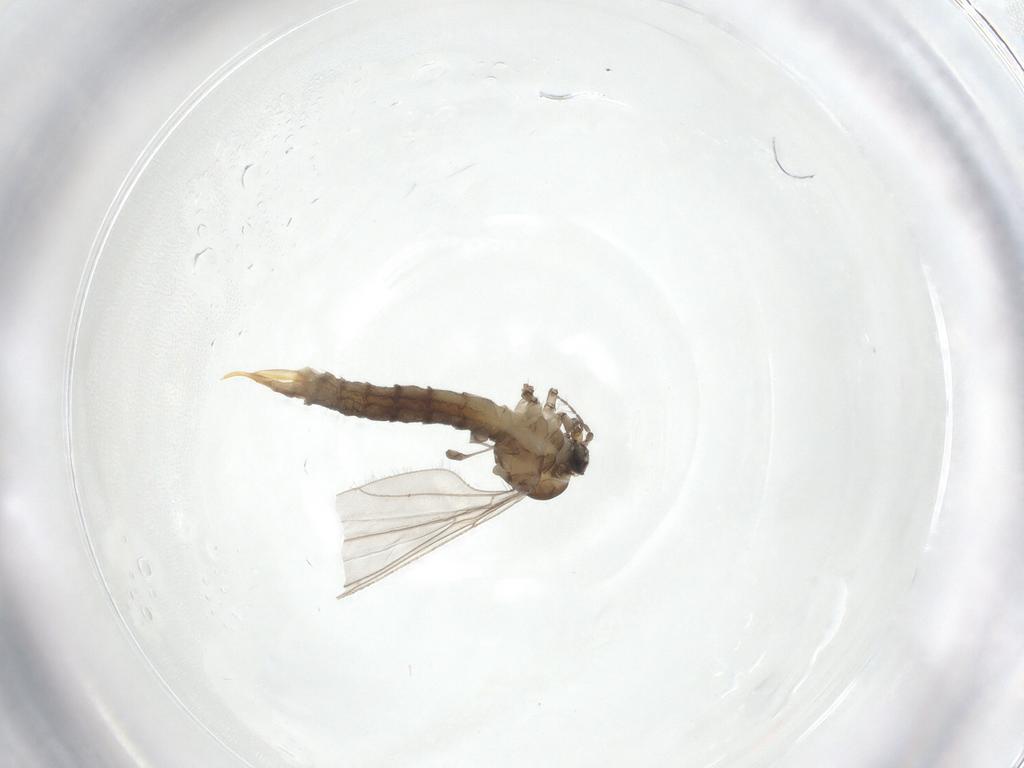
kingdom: Animalia
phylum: Arthropoda
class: Insecta
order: Diptera
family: Limoniidae
